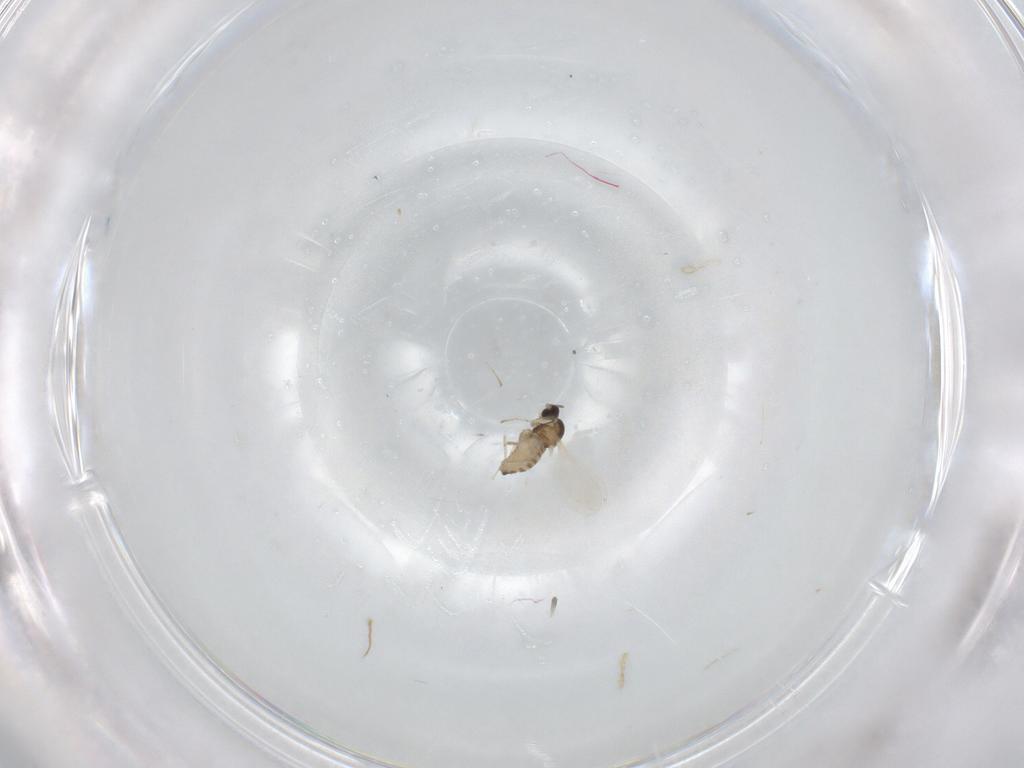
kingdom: Animalia
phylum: Arthropoda
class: Insecta
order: Diptera
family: Cecidomyiidae
